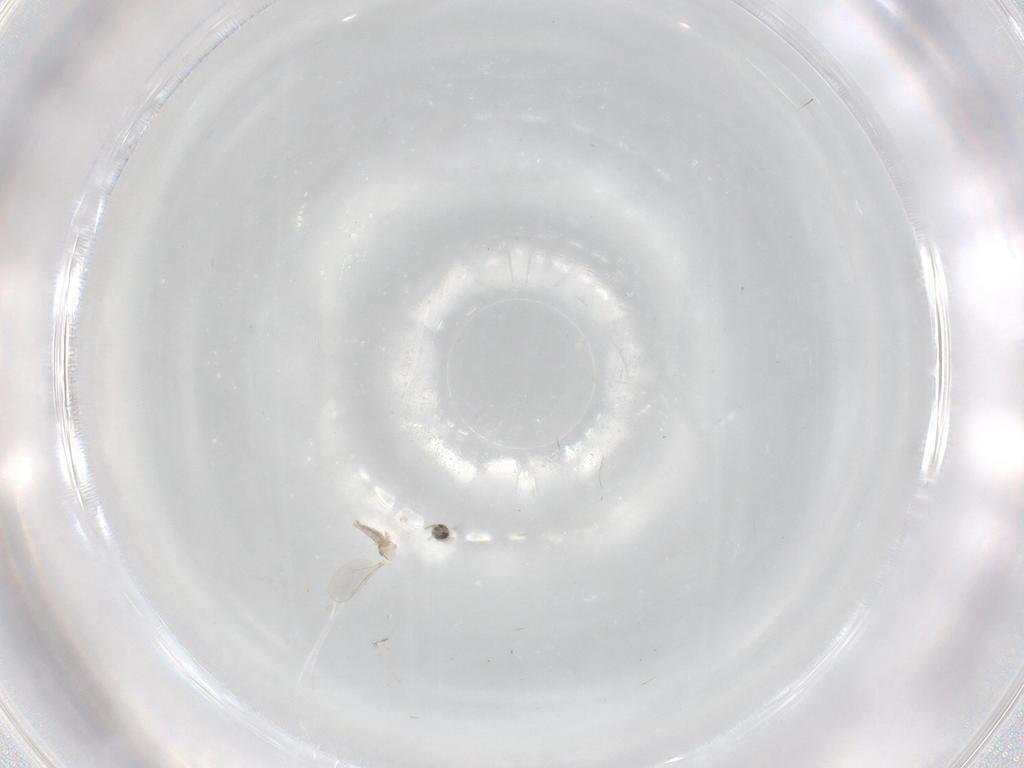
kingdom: Animalia
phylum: Arthropoda
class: Insecta
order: Diptera
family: Cecidomyiidae
